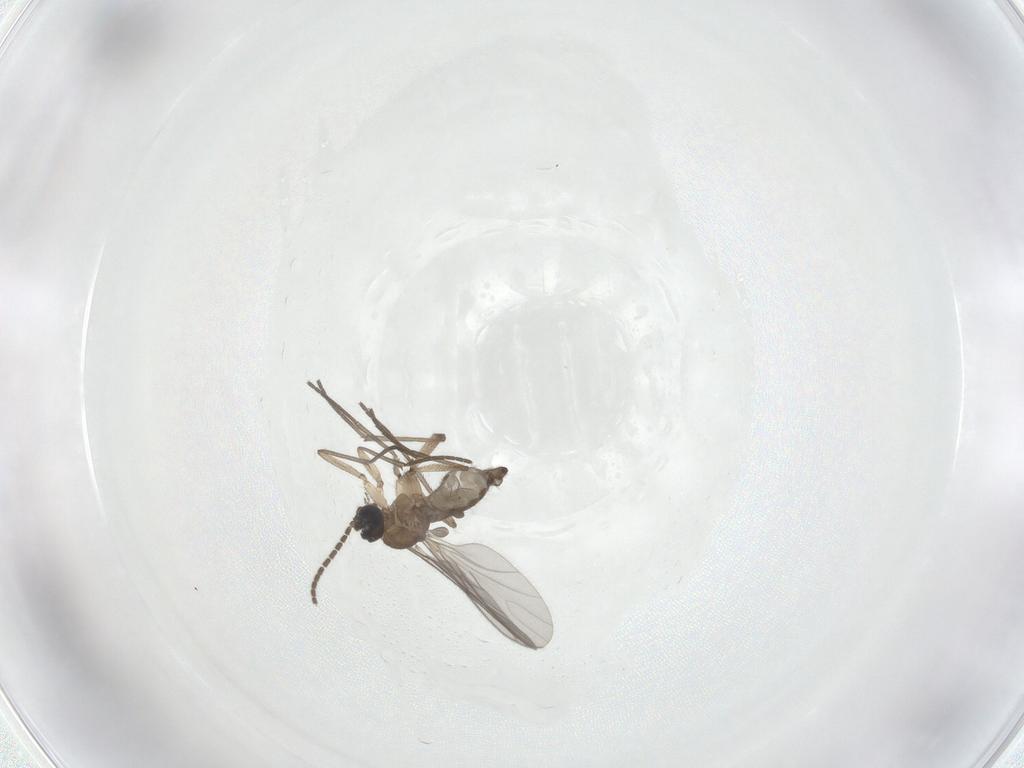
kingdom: Animalia
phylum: Arthropoda
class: Insecta
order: Diptera
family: Sciaridae
